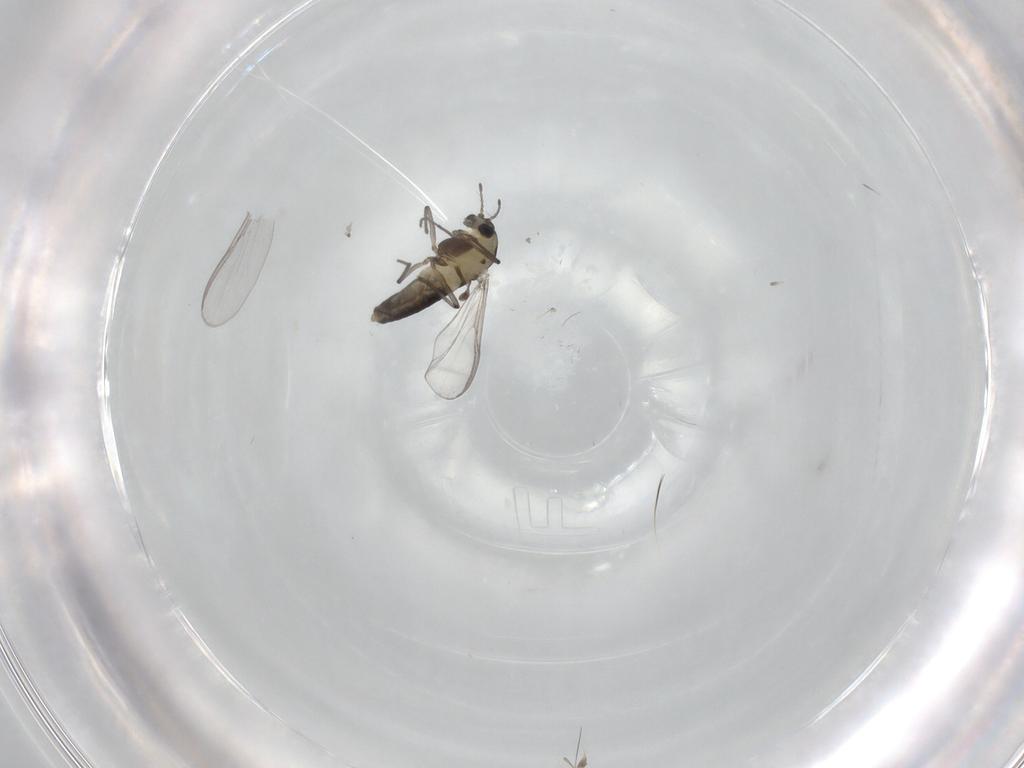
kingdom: Animalia
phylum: Arthropoda
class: Insecta
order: Diptera
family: Chironomidae
